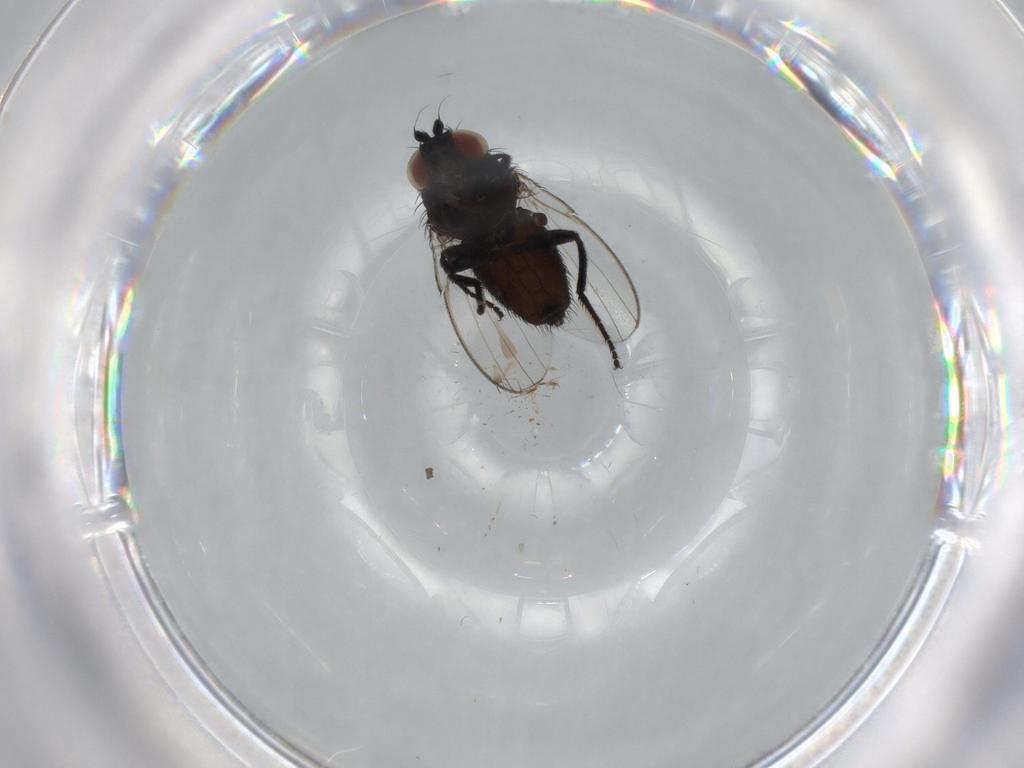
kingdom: Animalia
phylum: Arthropoda
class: Insecta
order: Diptera
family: Milichiidae
